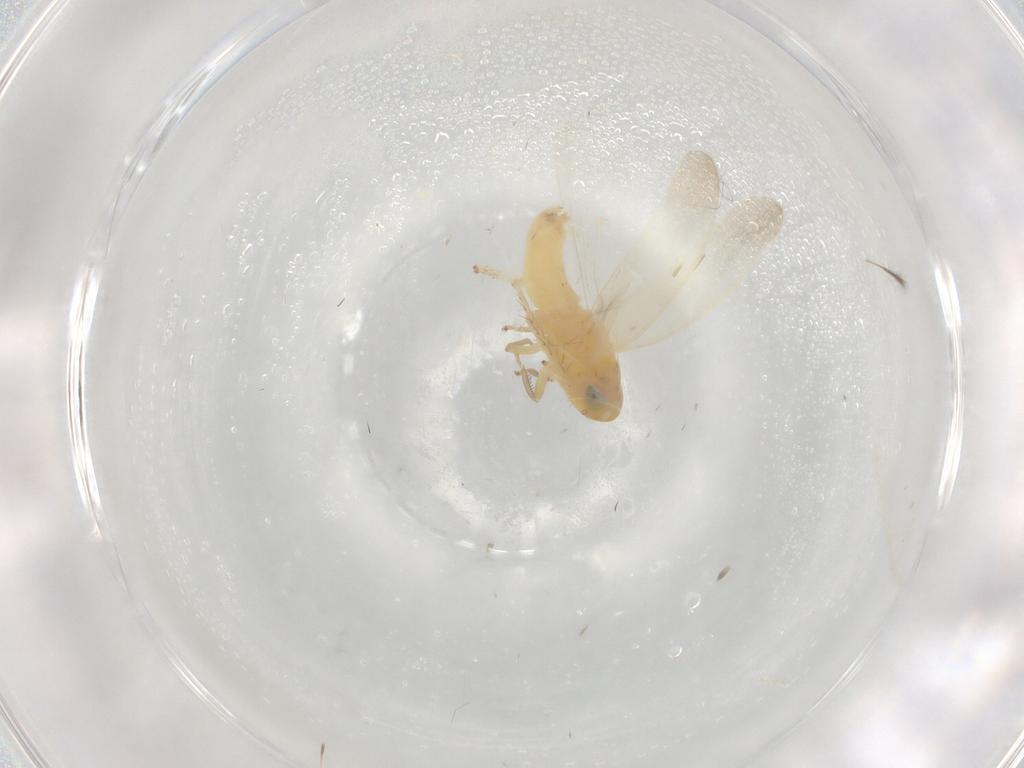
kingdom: Animalia
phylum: Arthropoda
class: Insecta
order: Hemiptera
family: Cicadellidae
